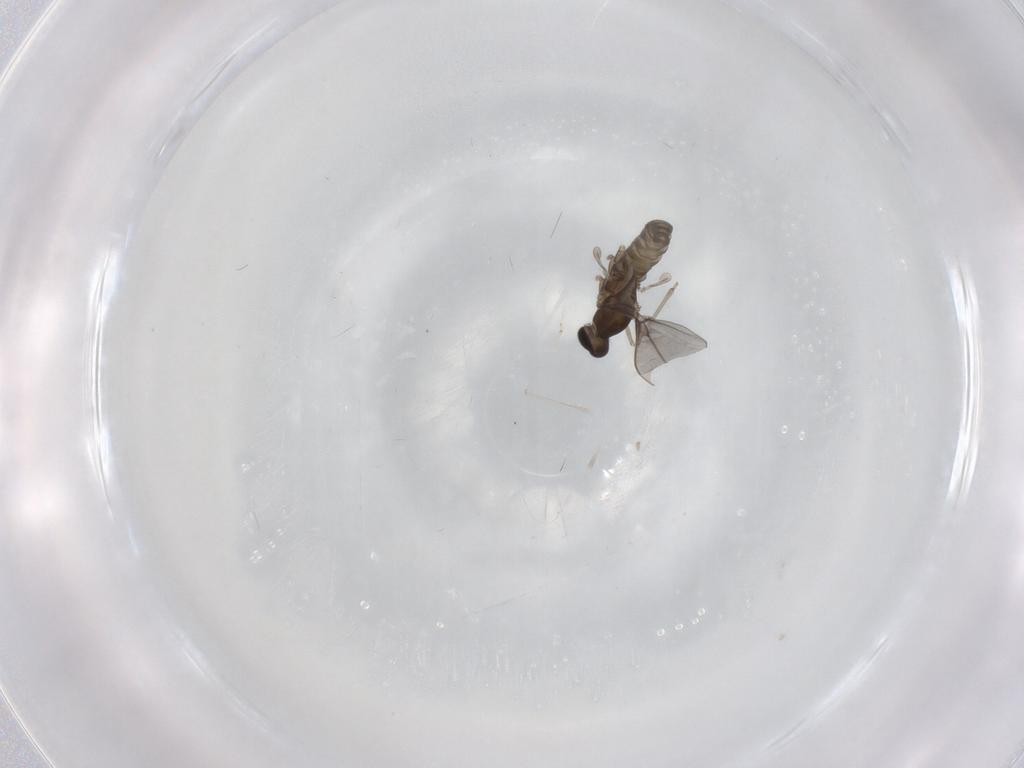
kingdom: Animalia
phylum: Arthropoda
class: Insecta
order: Diptera
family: Cecidomyiidae
